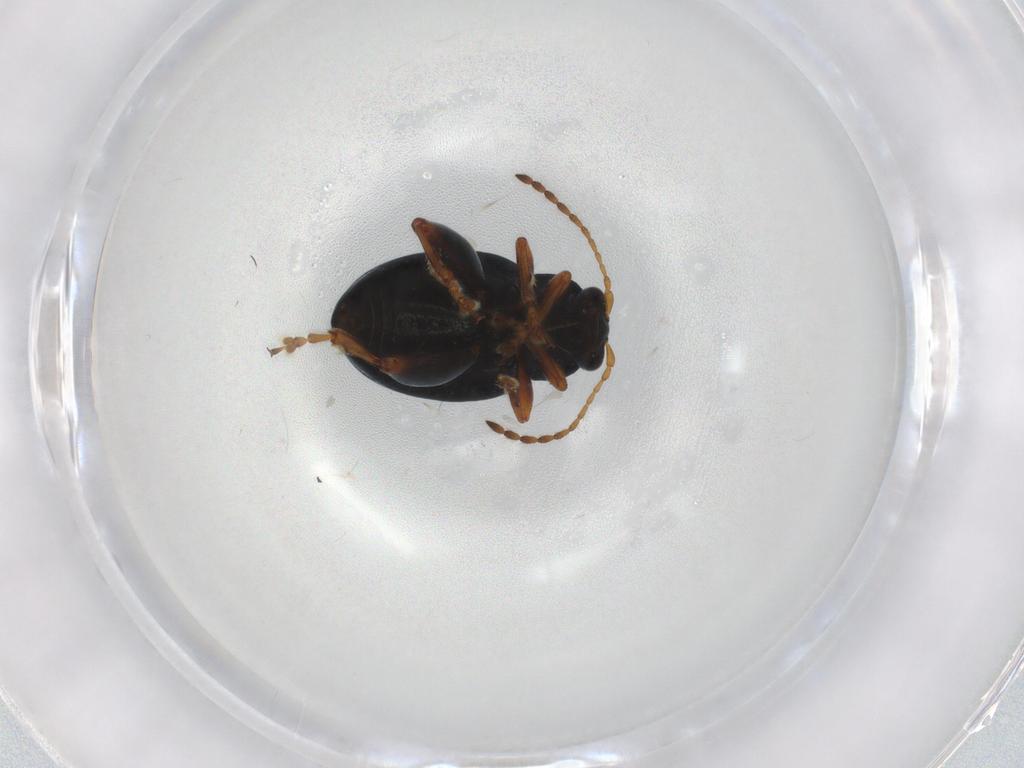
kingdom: Animalia
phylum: Arthropoda
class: Insecta
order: Coleoptera
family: Chrysomelidae
